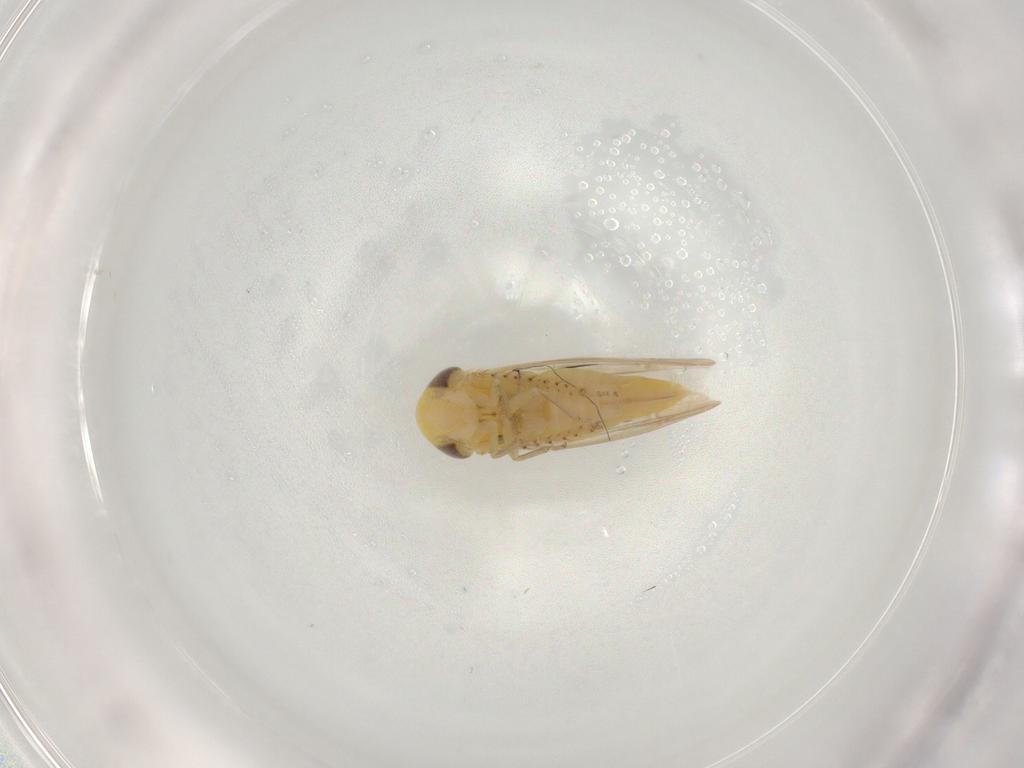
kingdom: Animalia
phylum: Arthropoda
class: Insecta
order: Hemiptera
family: Cicadellidae
